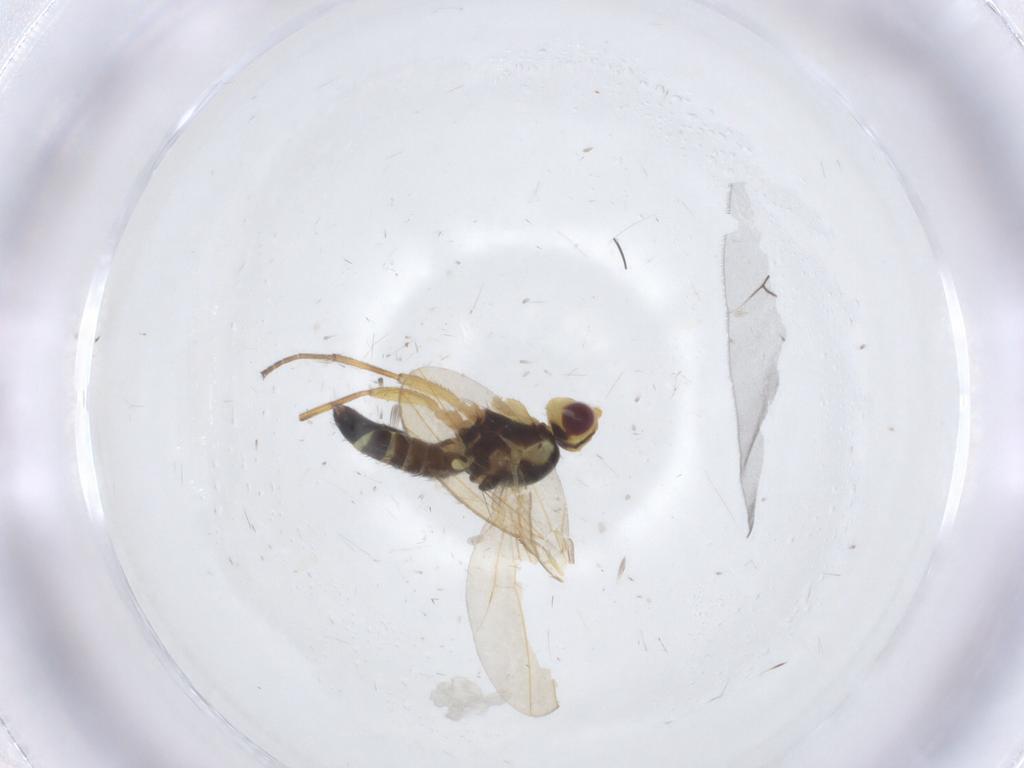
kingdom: Animalia
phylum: Arthropoda
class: Insecta
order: Diptera
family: Agromyzidae
